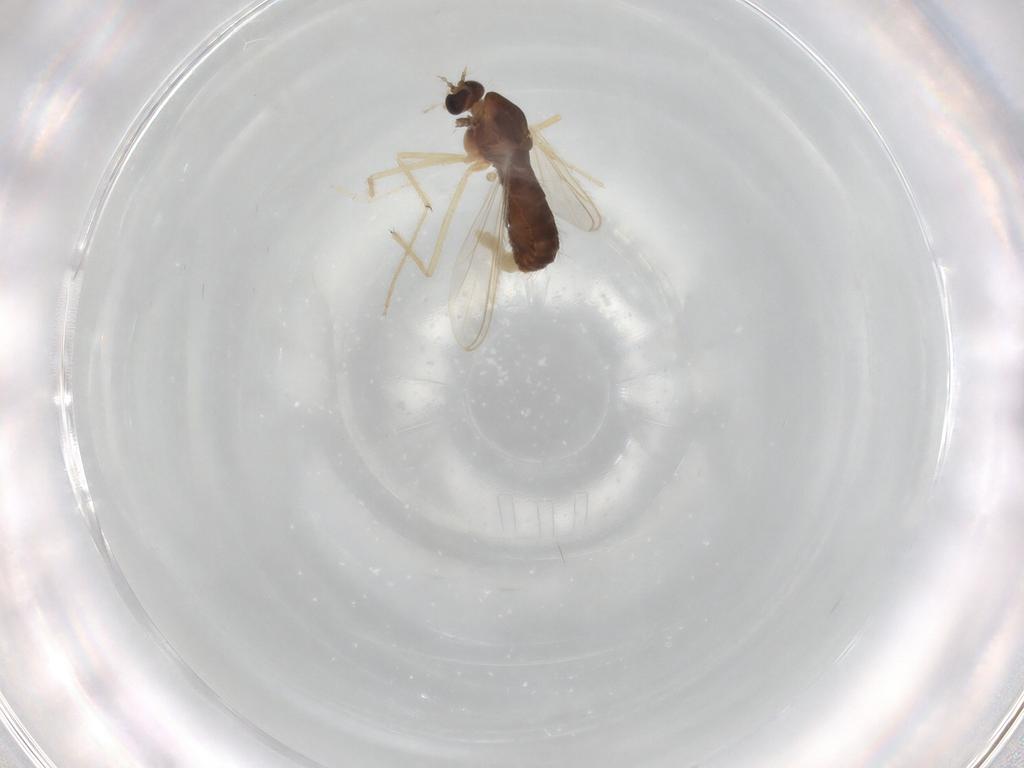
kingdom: Animalia
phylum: Arthropoda
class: Insecta
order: Diptera
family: Chironomidae
